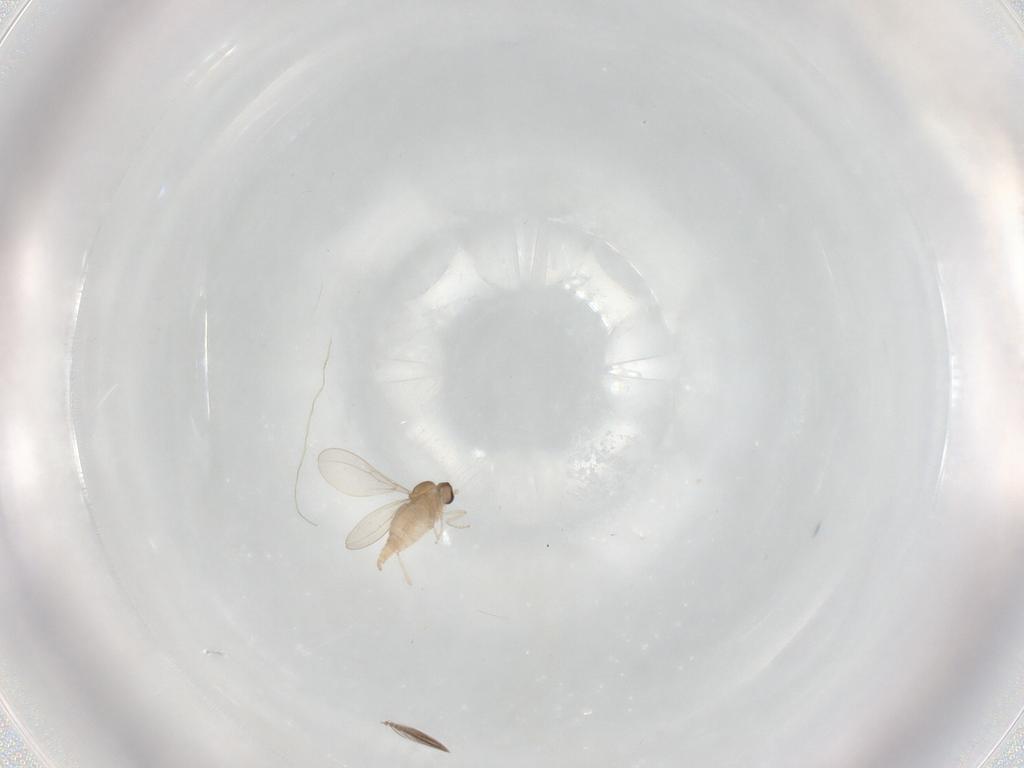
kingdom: Animalia
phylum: Arthropoda
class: Insecta
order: Diptera
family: Cecidomyiidae
